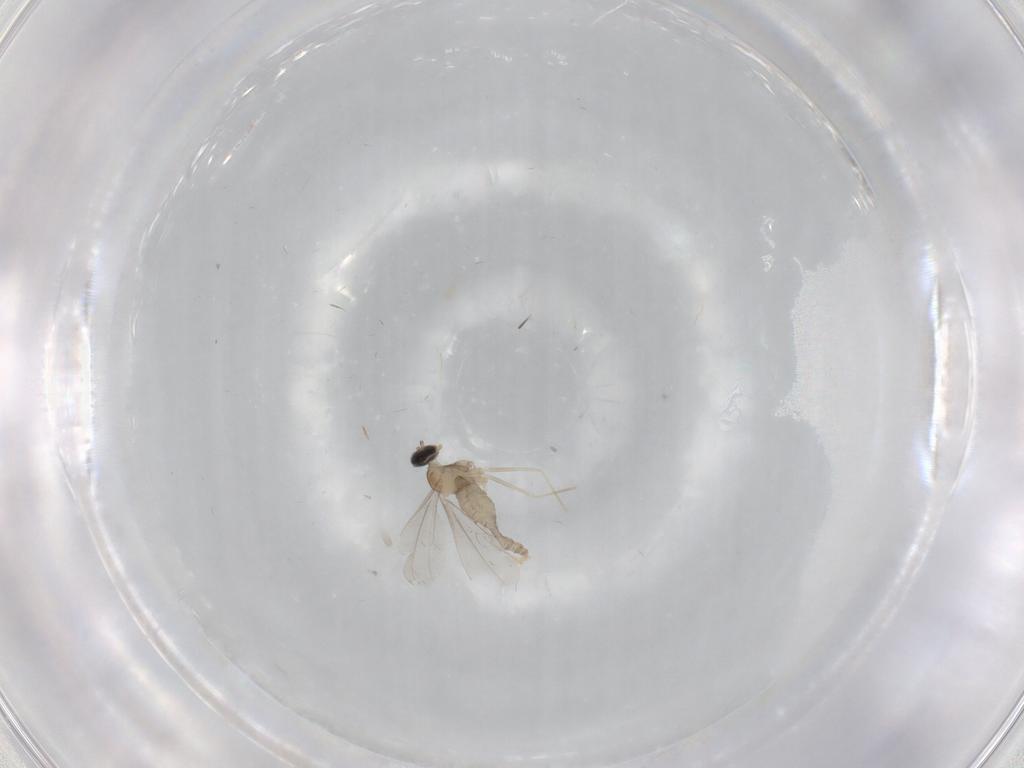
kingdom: Animalia
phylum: Arthropoda
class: Insecta
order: Diptera
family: Cecidomyiidae
